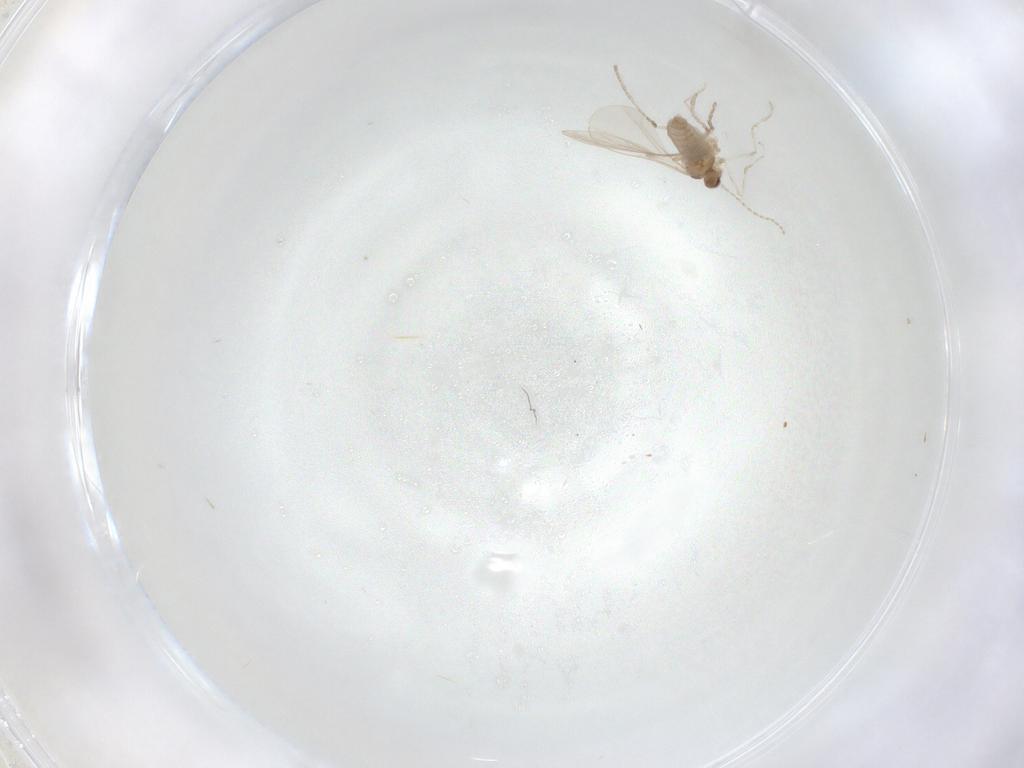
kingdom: Animalia
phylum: Arthropoda
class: Insecta
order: Diptera
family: Cecidomyiidae
